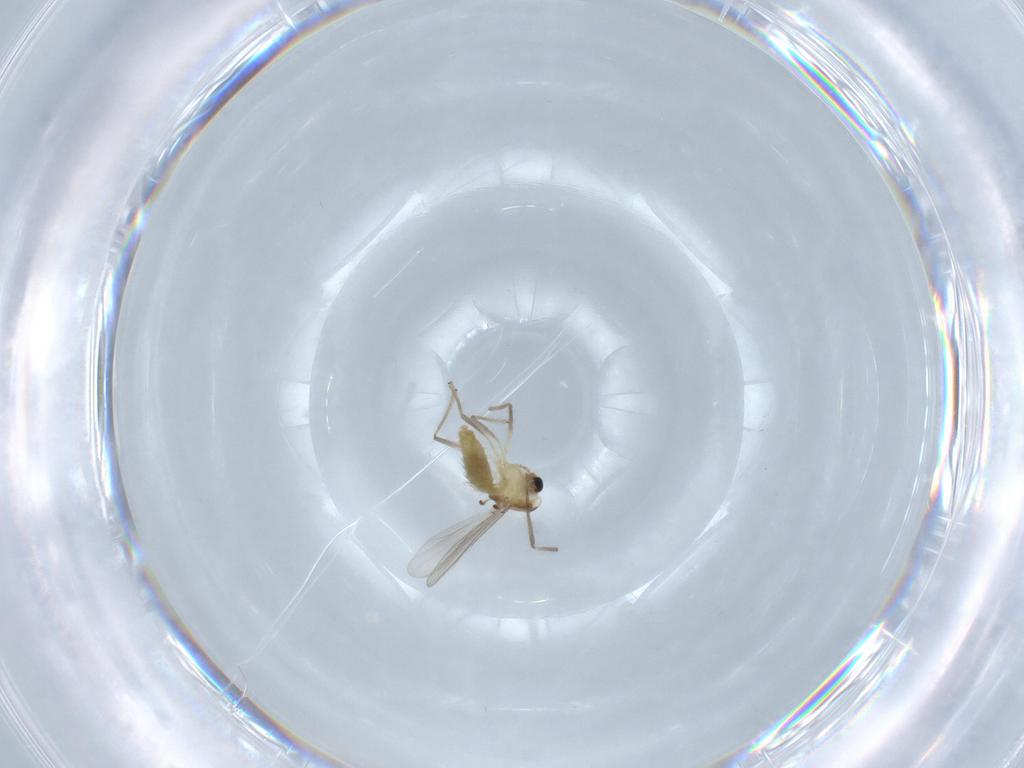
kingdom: Animalia
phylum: Arthropoda
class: Insecta
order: Diptera
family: Chironomidae
